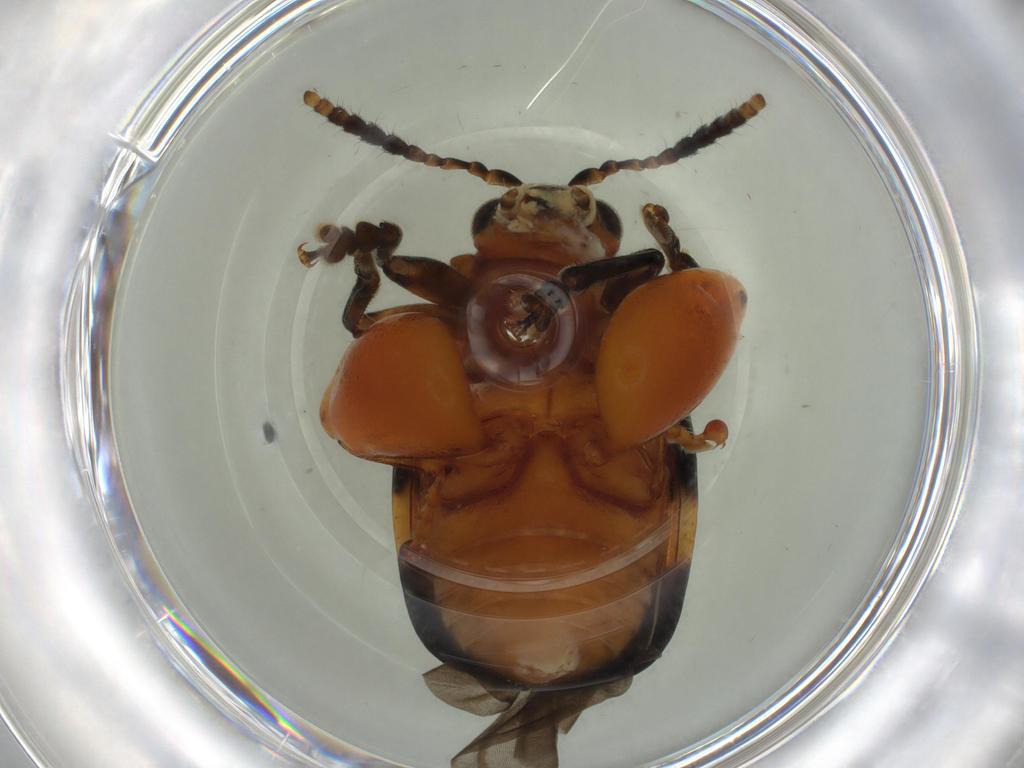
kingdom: Animalia
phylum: Arthropoda
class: Insecta
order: Coleoptera
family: Chrysomelidae
